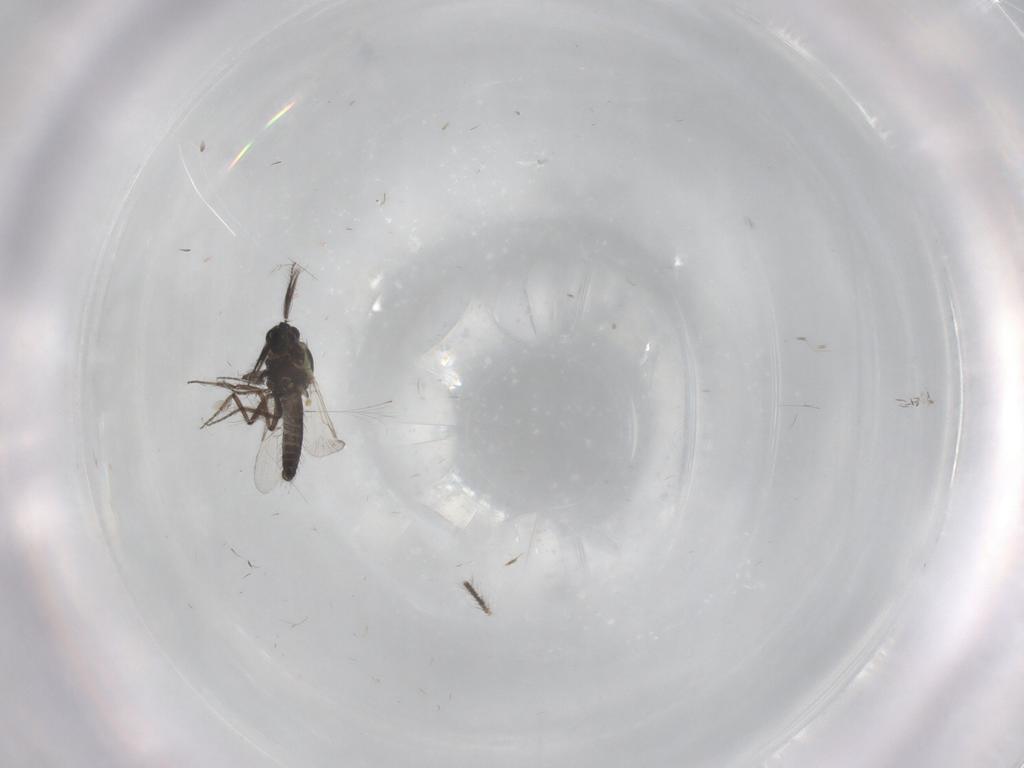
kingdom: Animalia
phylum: Arthropoda
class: Insecta
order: Diptera
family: Ceratopogonidae
